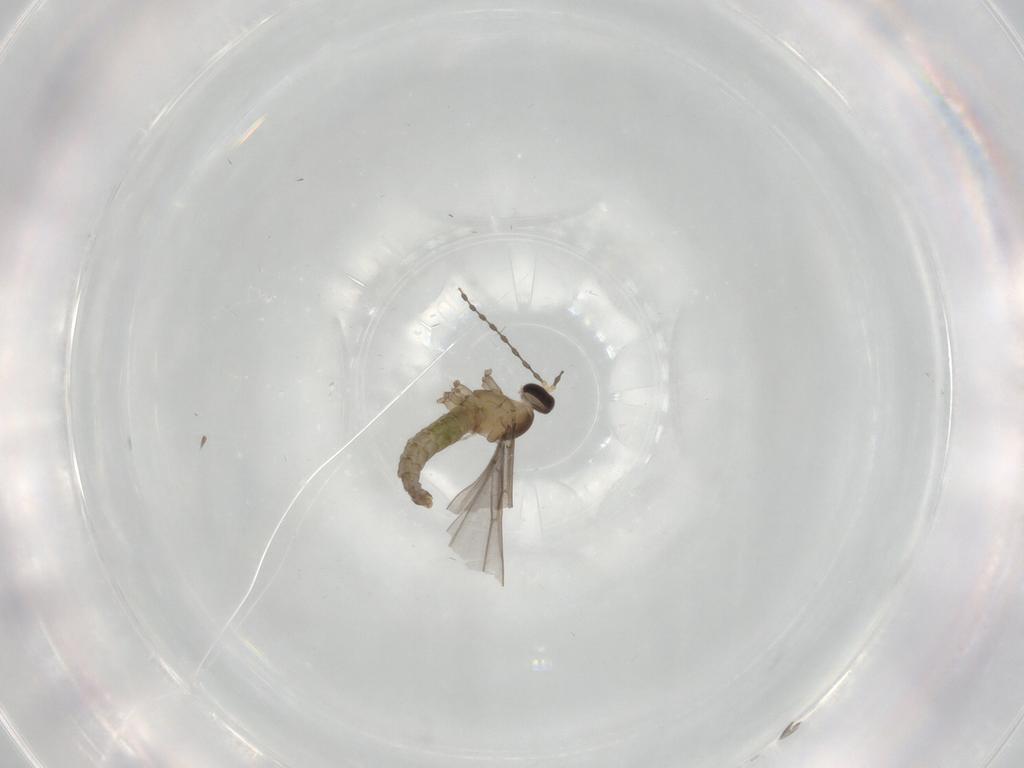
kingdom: Animalia
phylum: Arthropoda
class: Insecta
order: Diptera
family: Cecidomyiidae
